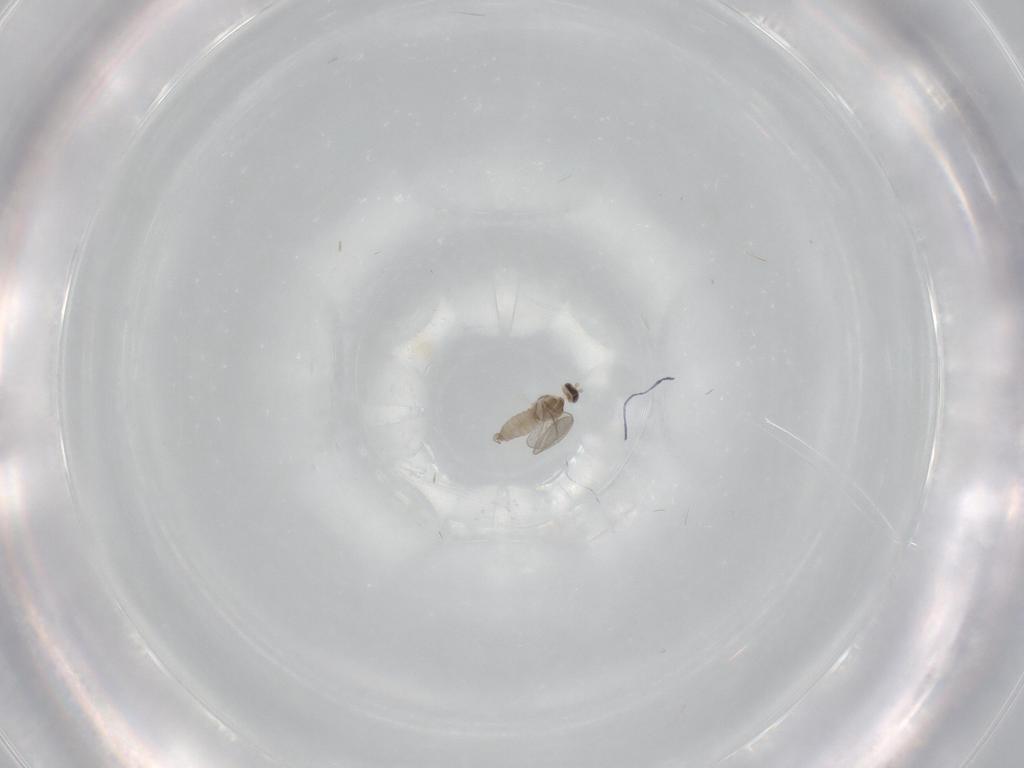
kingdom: Animalia
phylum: Arthropoda
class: Insecta
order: Diptera
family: Cecidomyiidae
